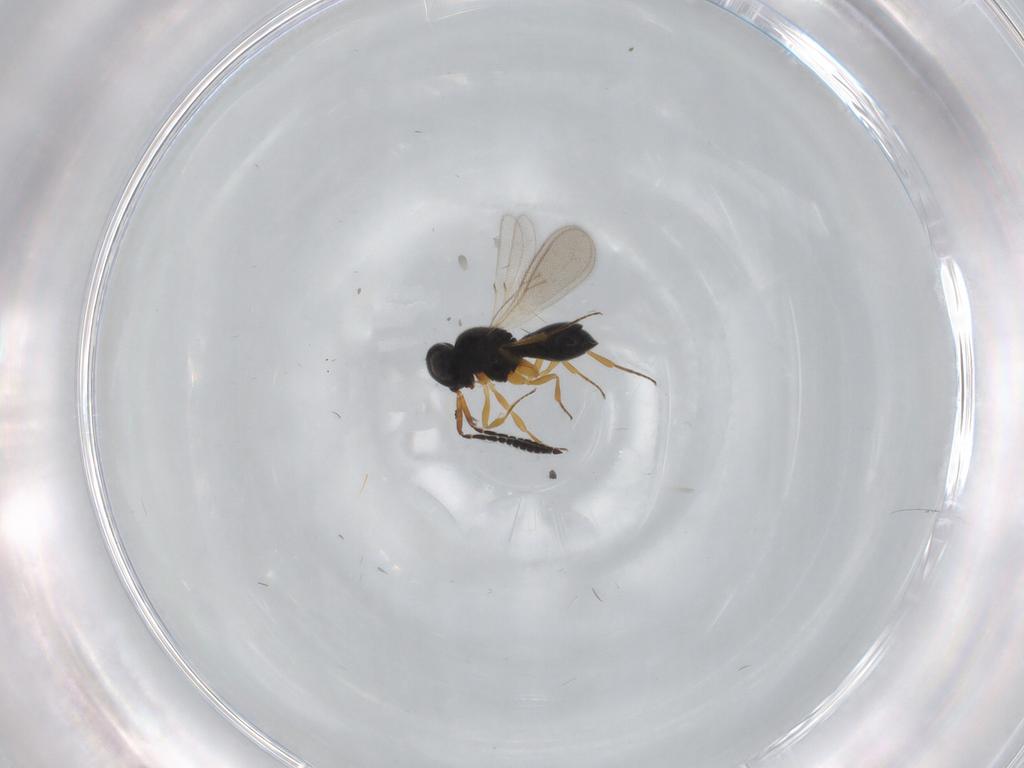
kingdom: Animalia
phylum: Arthropoda
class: Insecta
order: Hymenoptera
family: Scelionidae
